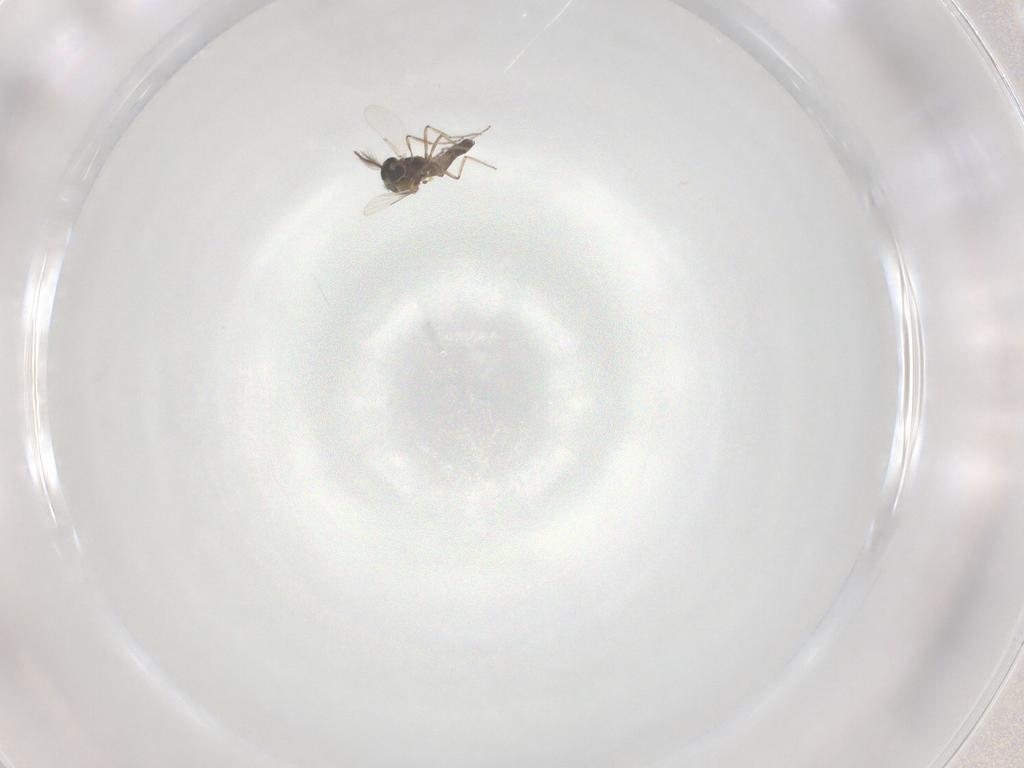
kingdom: Animalia
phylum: Arthropoda
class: Insecta
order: Diptera
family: Ceratopogonidae
